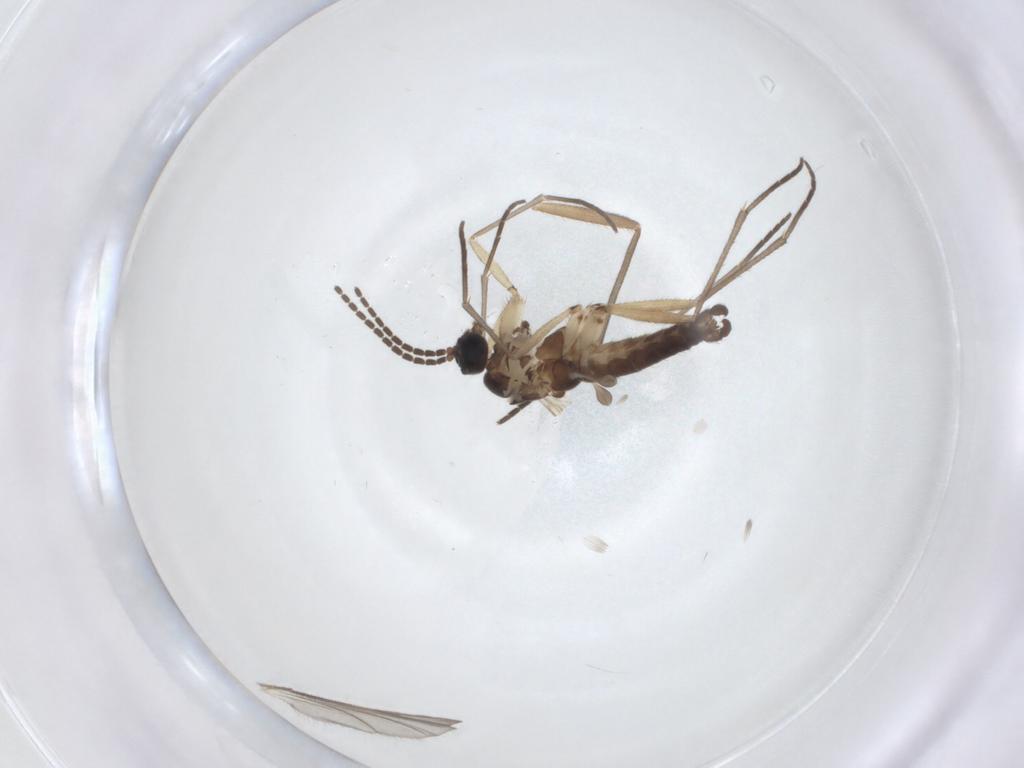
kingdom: Animalia
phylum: Arthropoda
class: Insecta
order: Diptera
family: Sciaridae
